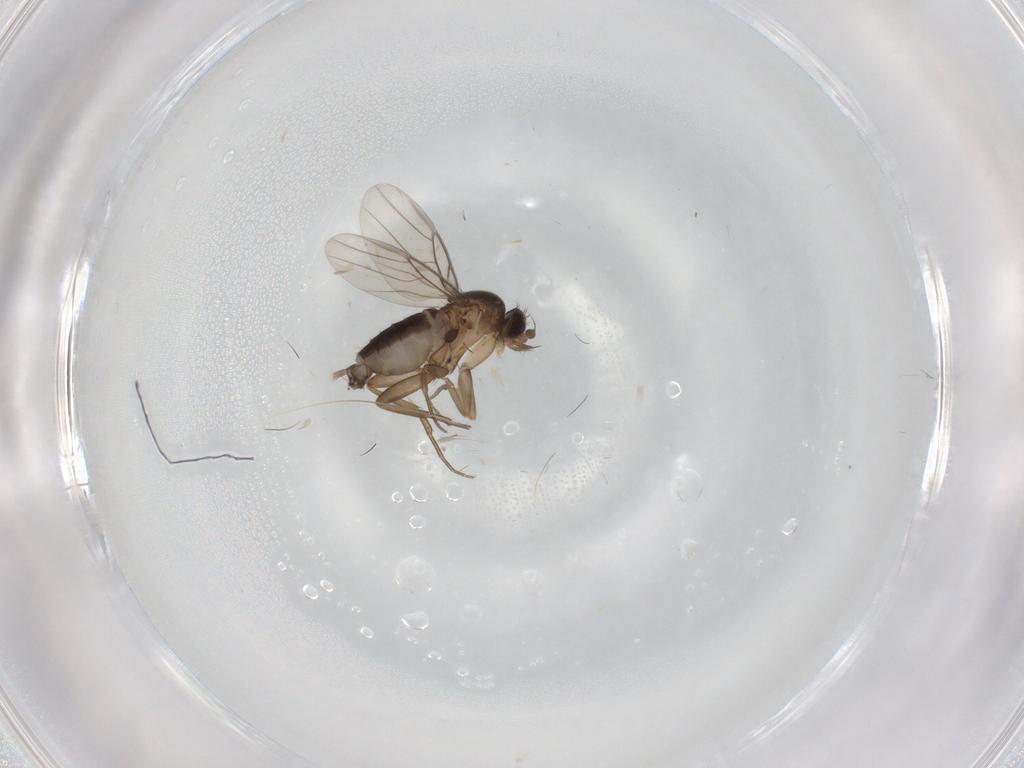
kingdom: Animalia
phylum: Arthropoda
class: Insecta
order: Diptera
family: Phoridae
